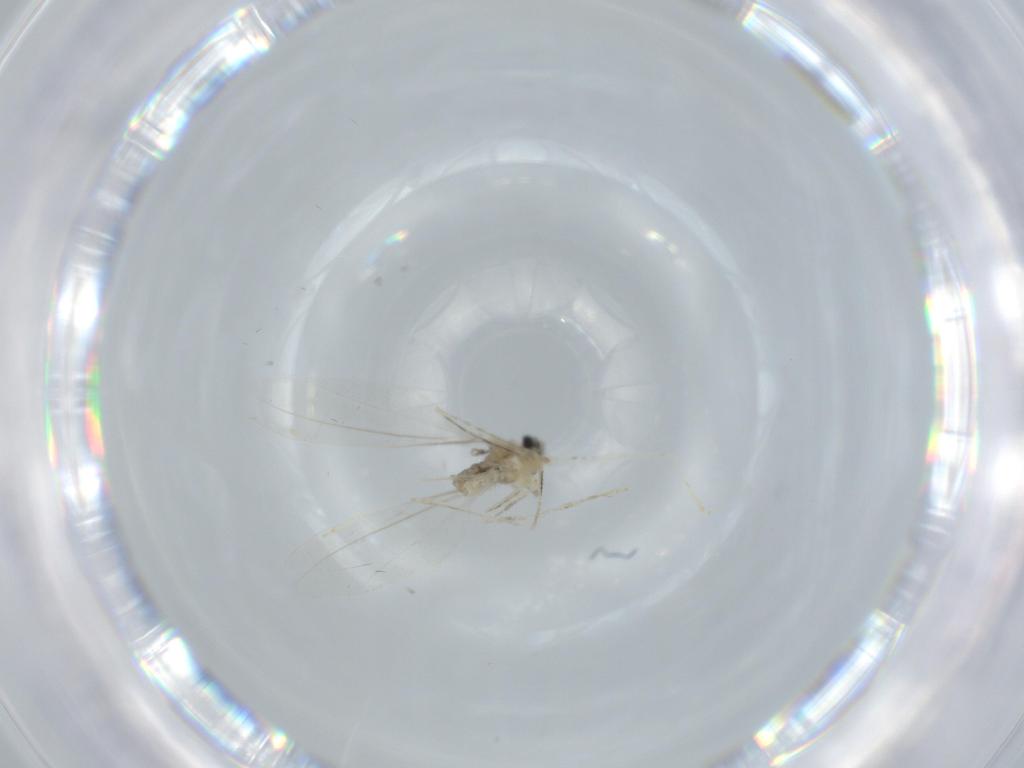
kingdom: Animalia
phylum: Arthropoda
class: Insecta
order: Diptera
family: Cecidomyiidae
